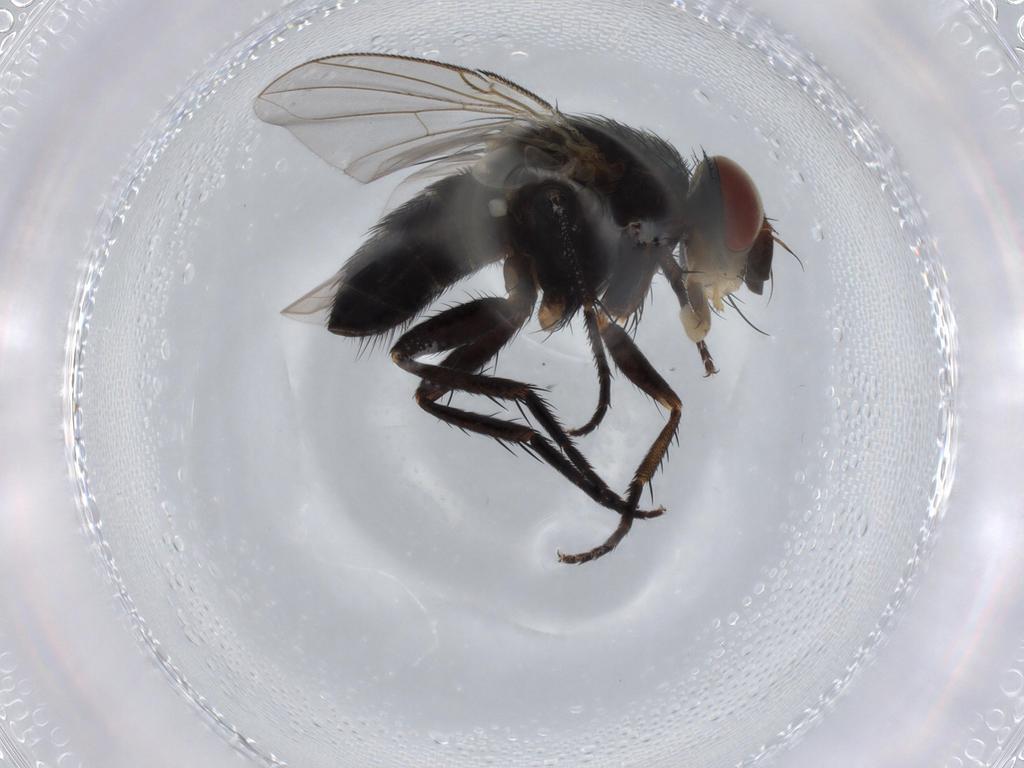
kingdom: Animalia
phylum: Arthropoda
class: Insecta
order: Diptera
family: Tachinidae
